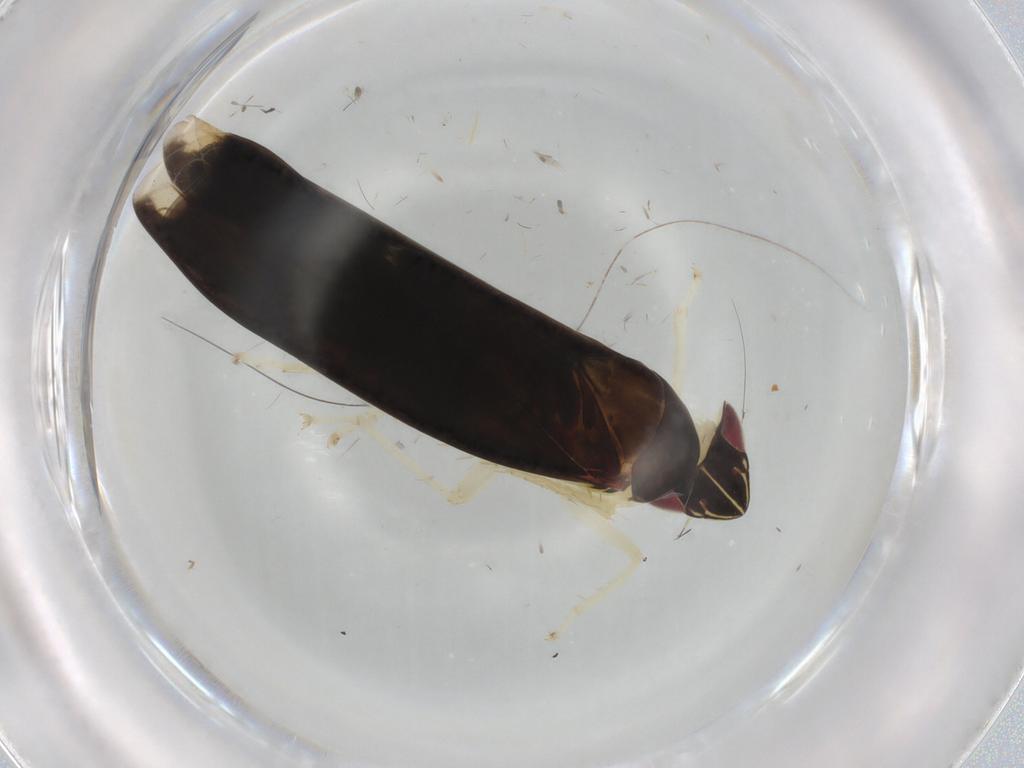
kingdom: Animalia
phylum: Arthropoda
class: Insecta
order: Hemiptera
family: Cicadellidae
